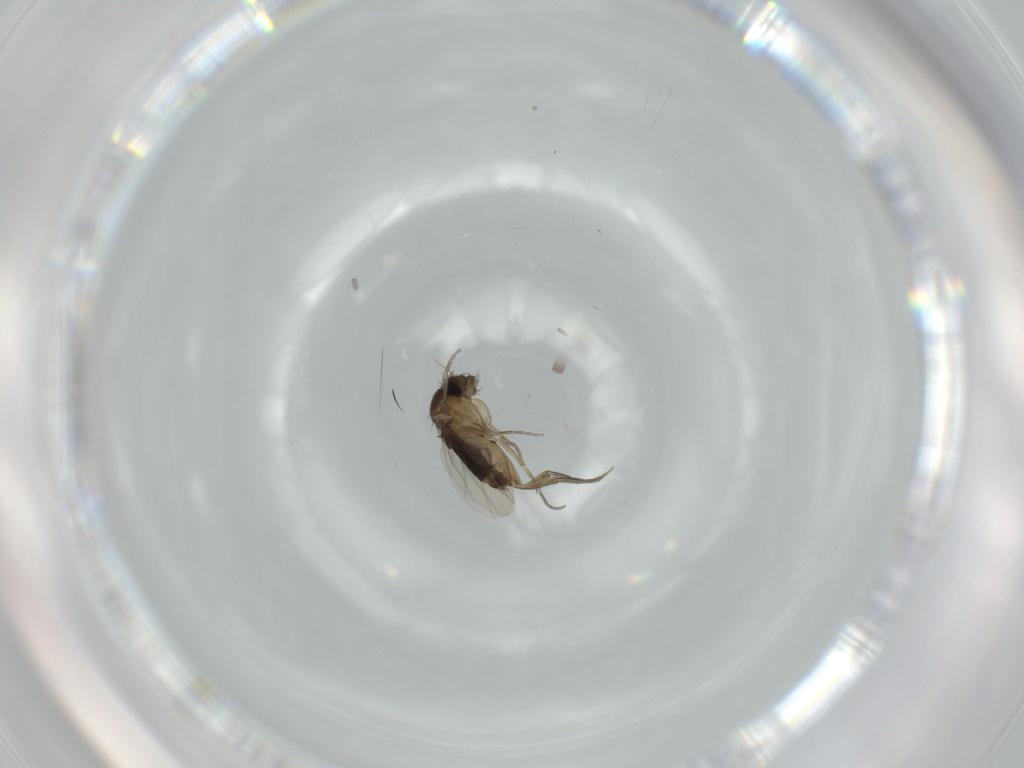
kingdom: Animalia
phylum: Arthropoda
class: Insecta
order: Diptera
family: Phoridae
